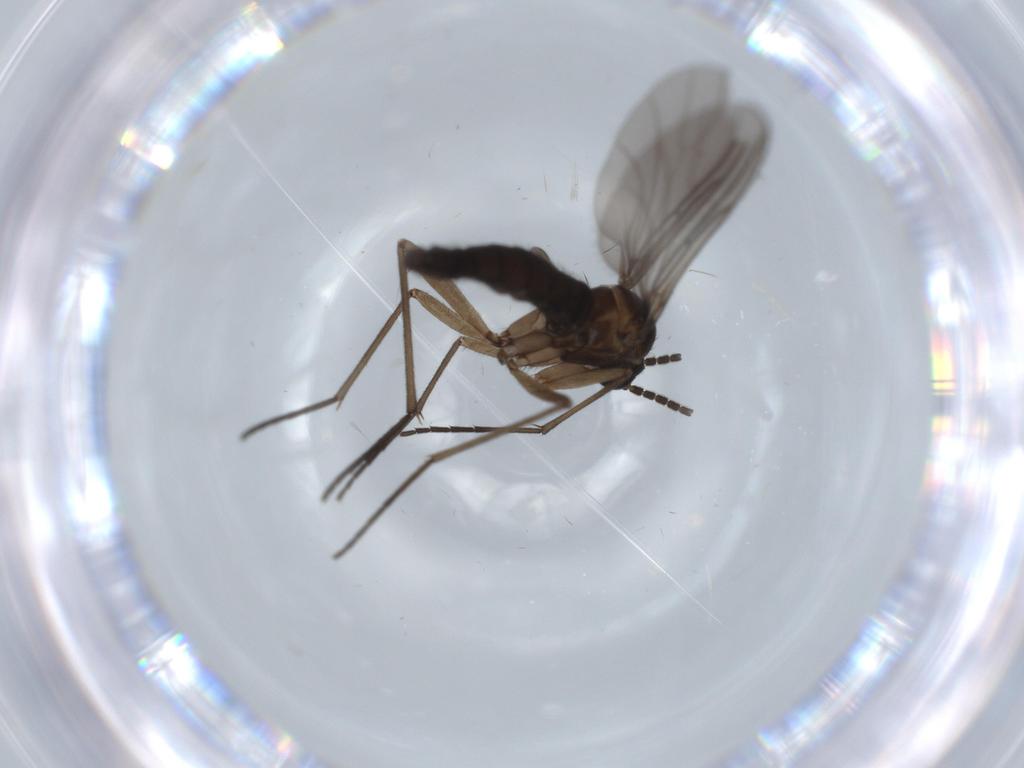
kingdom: Animalia
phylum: Arthropoda
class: Insecta
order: Diptera
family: Sciaridae
